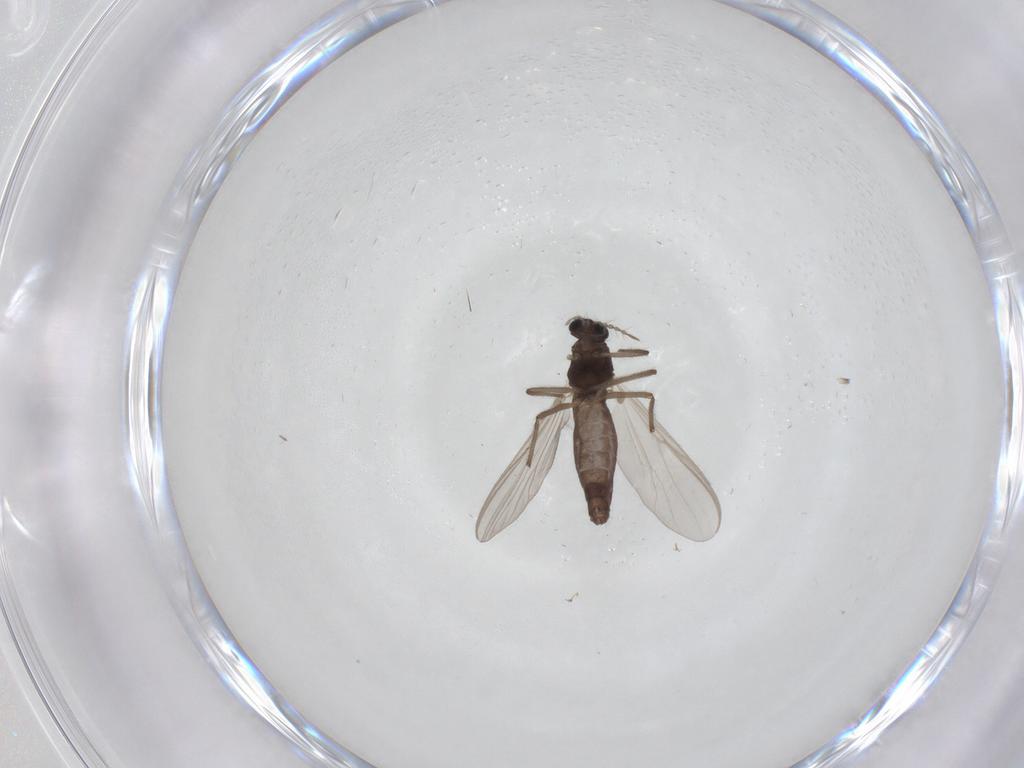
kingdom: Animalia
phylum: Arthropoda
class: Insecta
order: Diptera
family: Chironomidae
